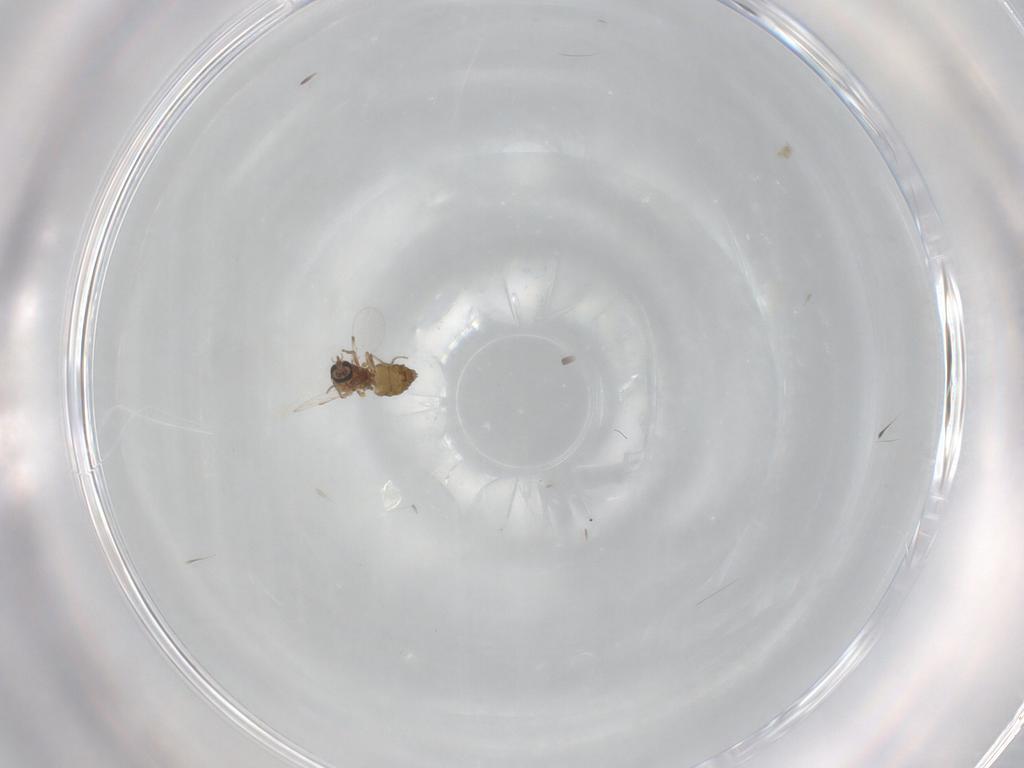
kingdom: Animalia
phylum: Arthropoda
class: Insecta
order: Diptera
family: Ceratopogonidae
